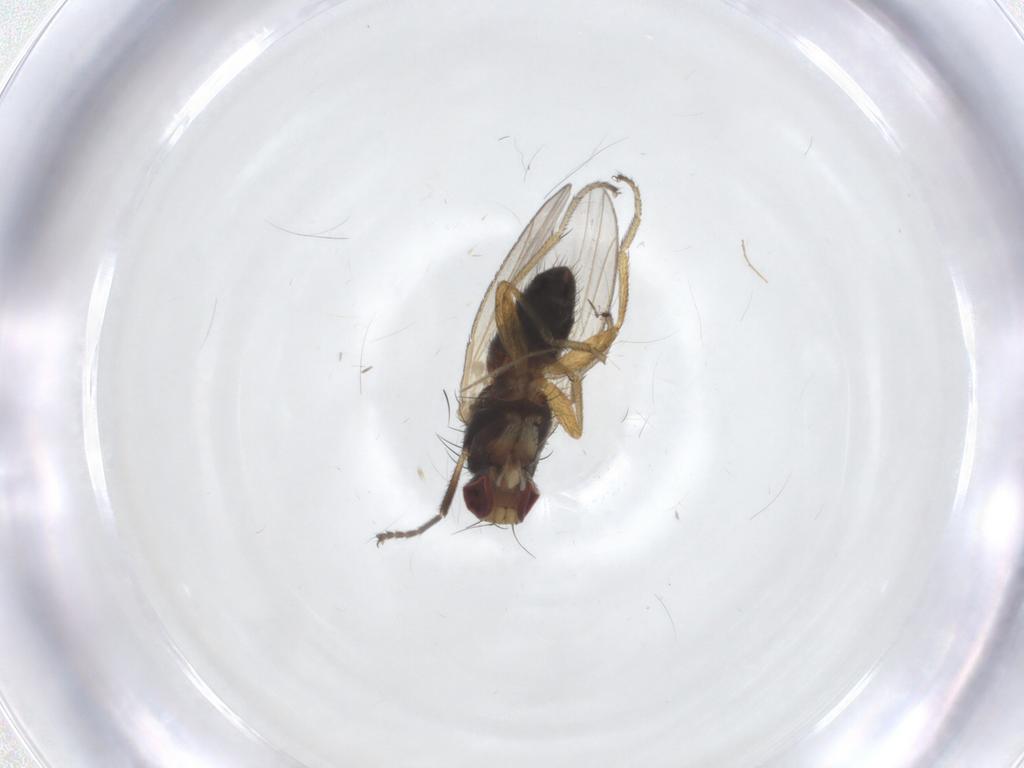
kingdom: Animalia
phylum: Arthropoda
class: Insecta
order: Diptera
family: Heleomyzidae
